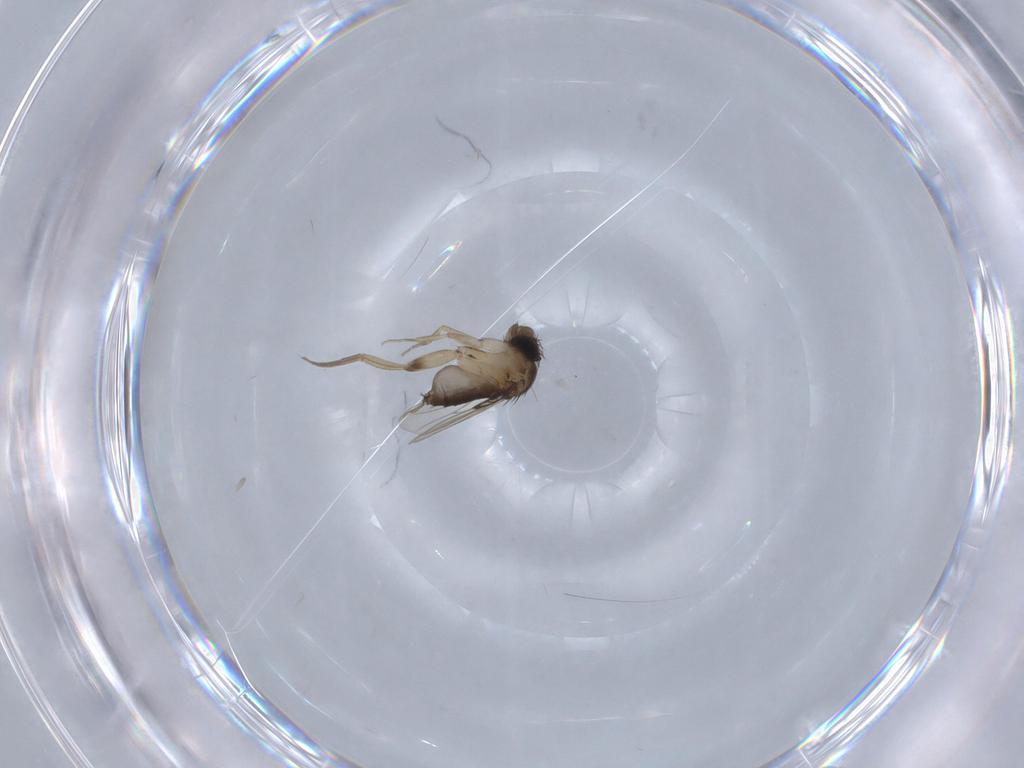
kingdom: Animalia
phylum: Arthropoda
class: Insecta
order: Diptera
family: Phoridae
